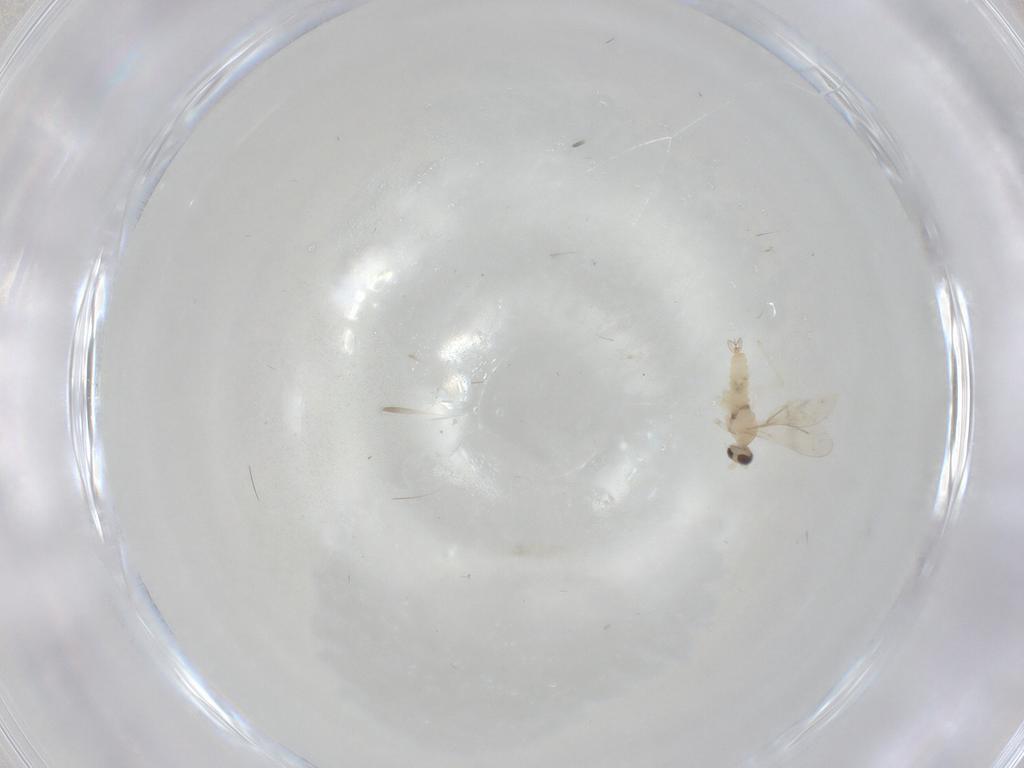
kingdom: Animalia
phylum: Arthropoda
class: Insecta
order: Diptera
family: Cecidomyiidae
